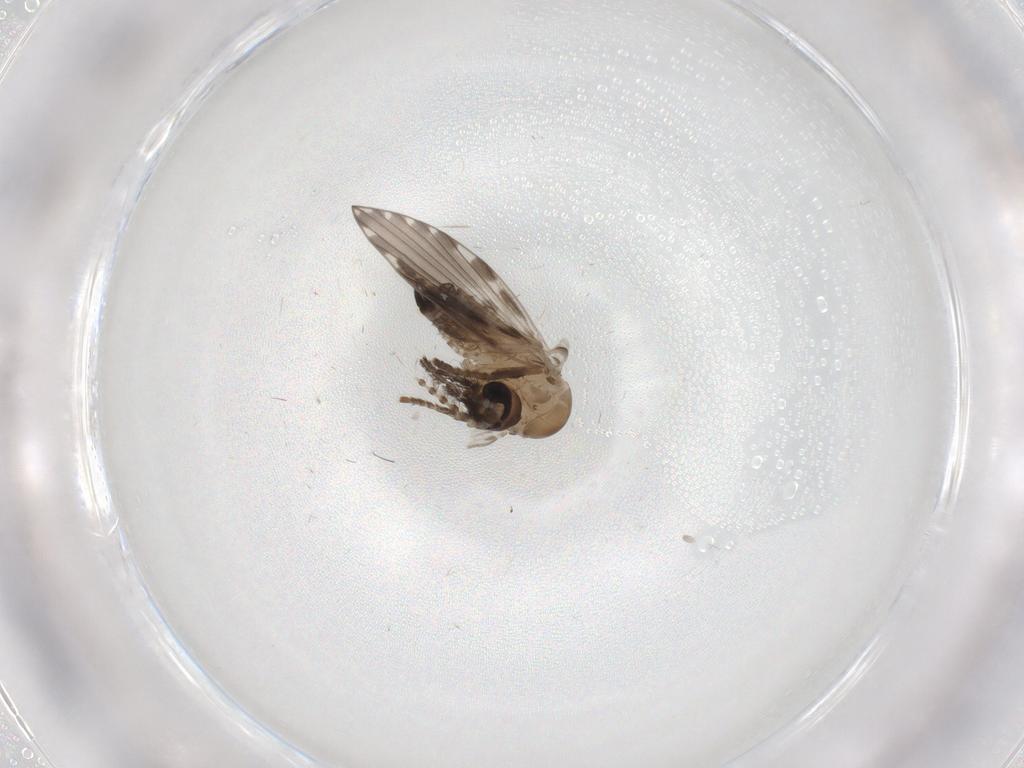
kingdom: Animalia
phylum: Arthropoda
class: Insecta
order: Diptera
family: Psychodidae
